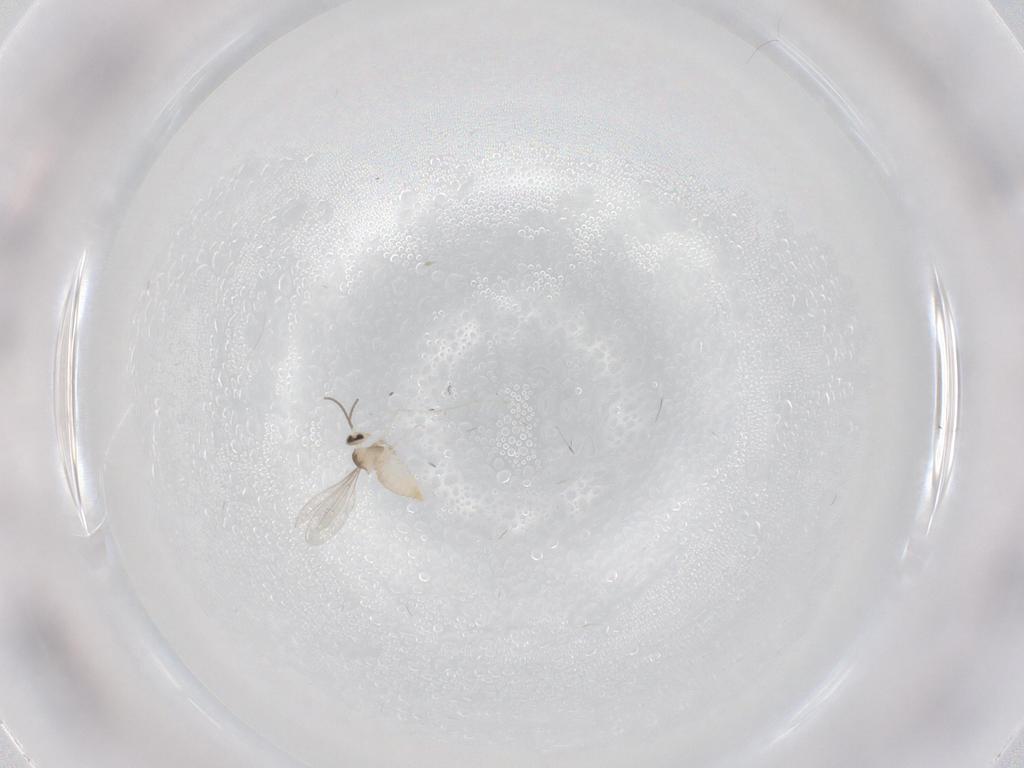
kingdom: Animalia
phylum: Arthropoda
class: Insecta
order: Diptera
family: Cecidomyiidae
